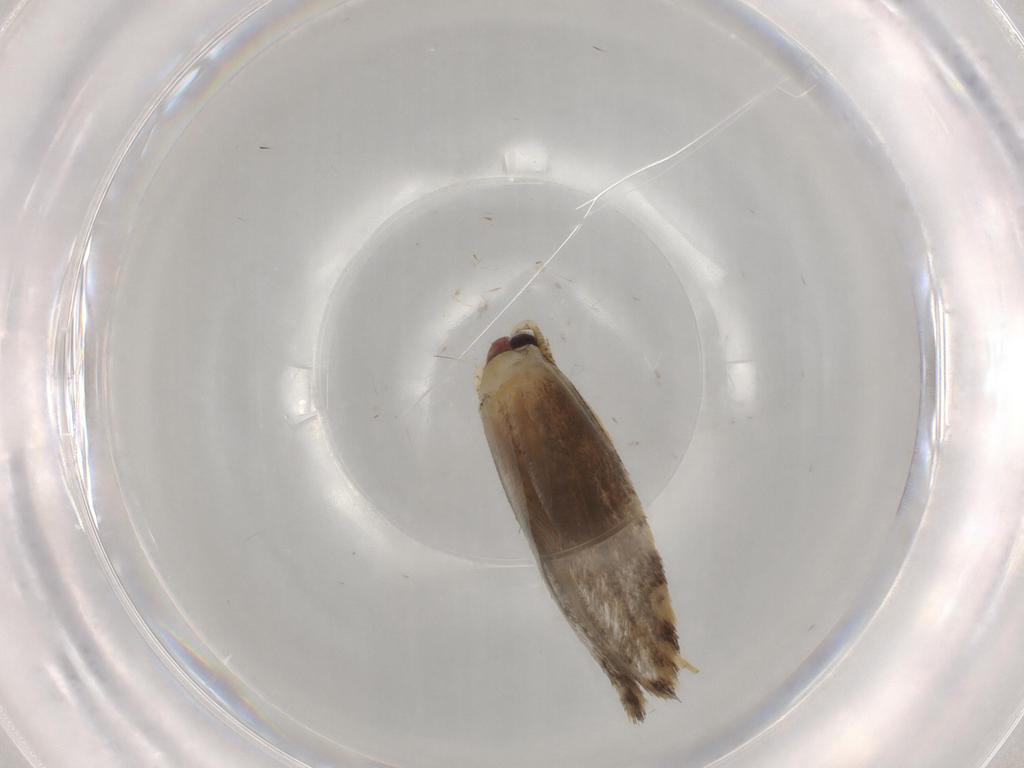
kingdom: Animalia
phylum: Arthropoda
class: Insecta
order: Lepidoptera
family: Tineidae
